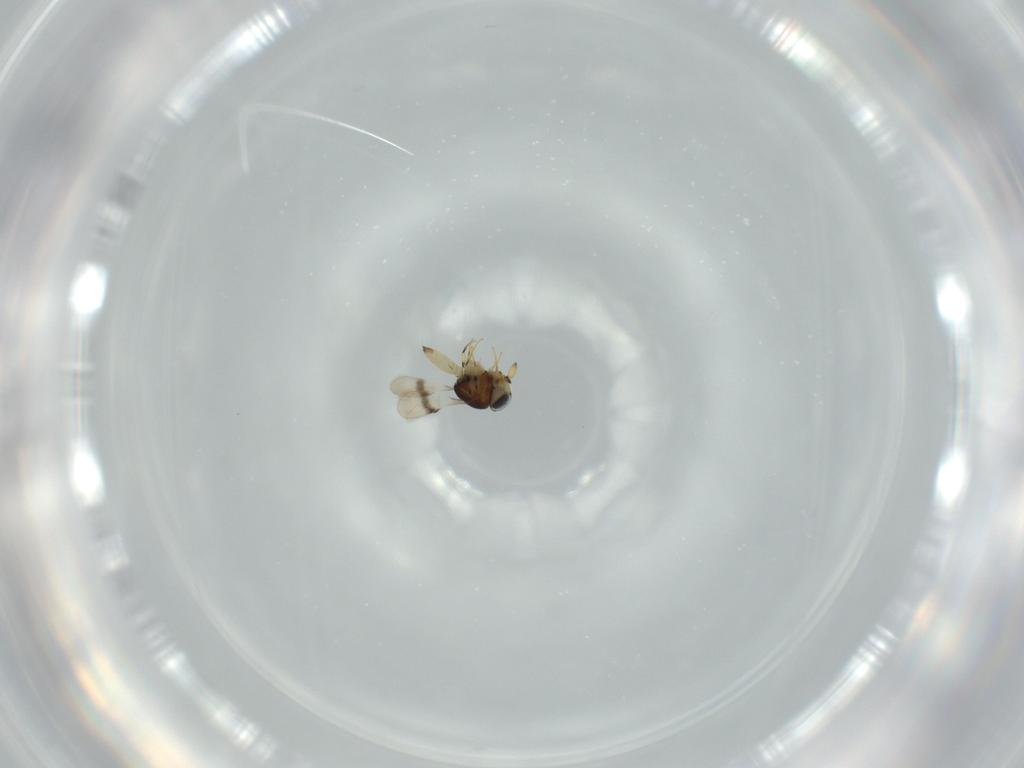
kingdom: Animalia
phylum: Arthropoda
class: Insecta
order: Hymenoptera
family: Scelionidae
